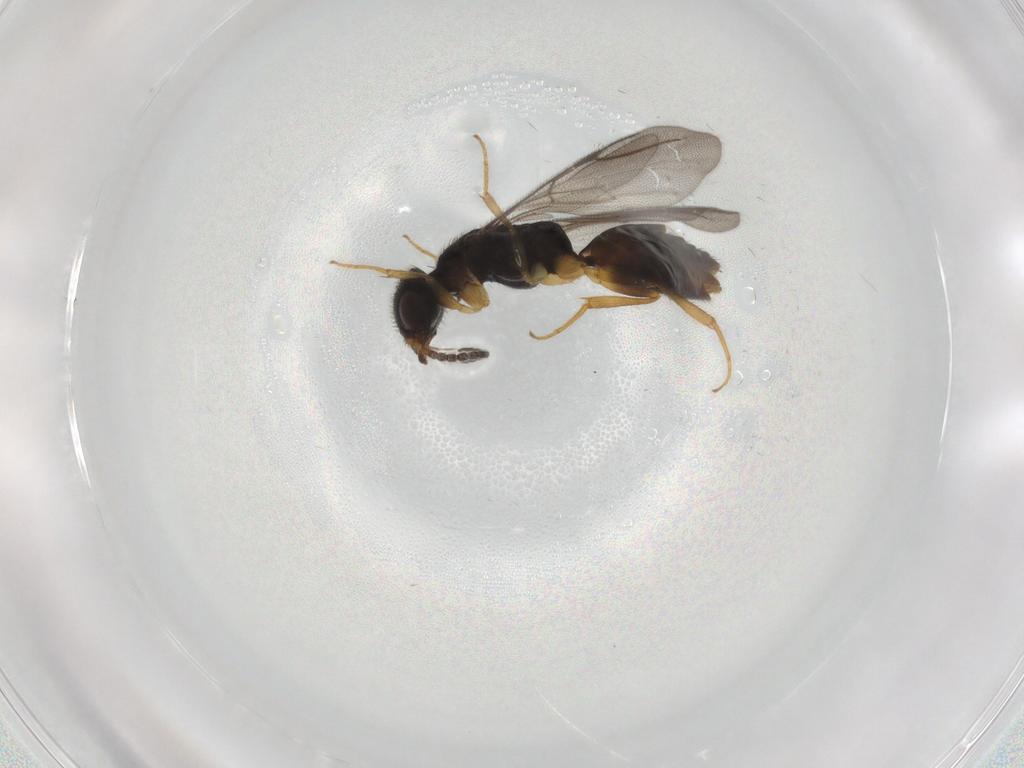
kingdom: Animalia
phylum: Arthropoda
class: Insecta
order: Hymenoptera
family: Bethylidae
